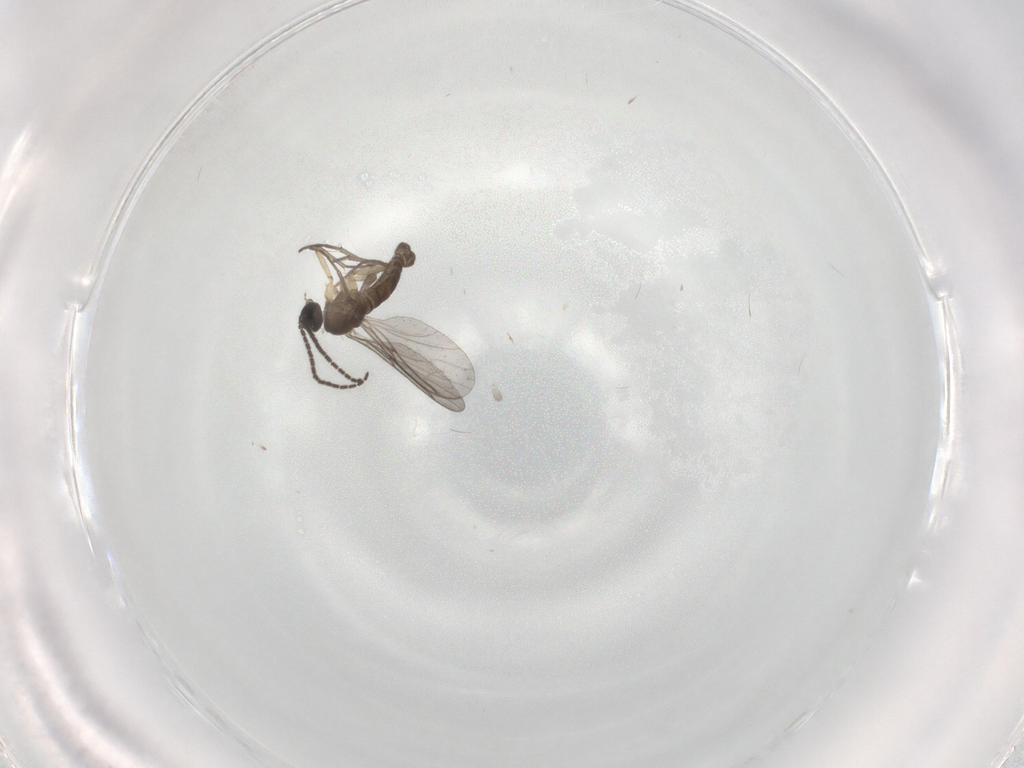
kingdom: Animalia
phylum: Arthropoda
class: Insecta
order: Diptera
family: Sciaridae
